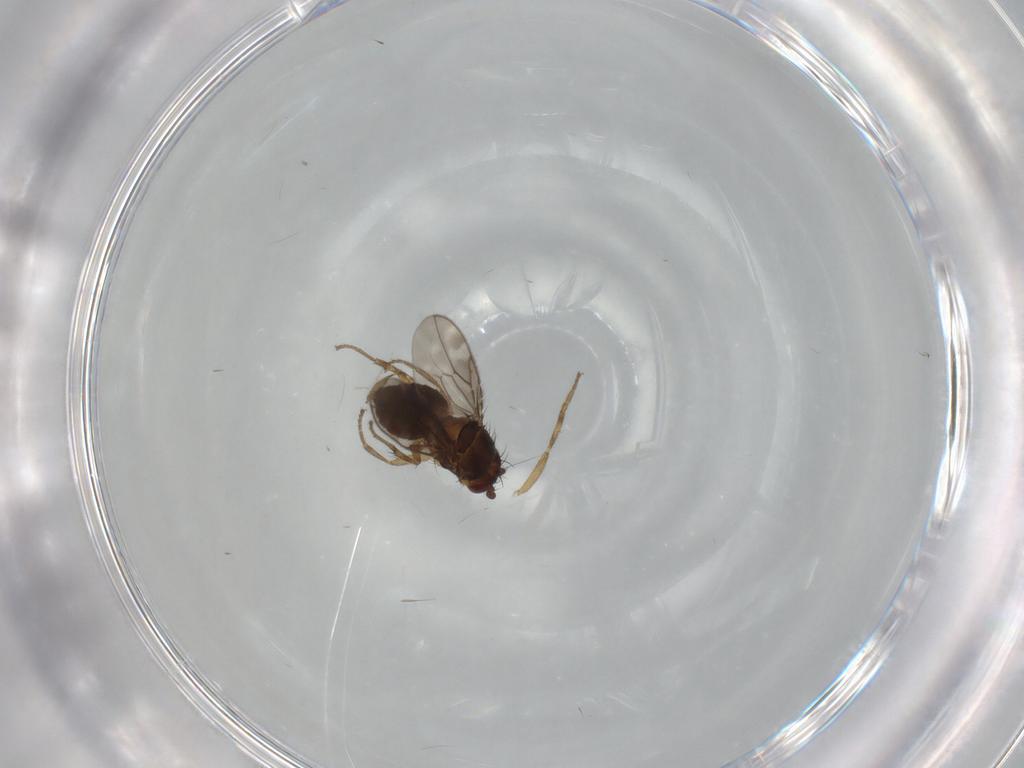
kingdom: Animalia
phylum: Arthropoda
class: Insecta
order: Diptera
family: Sphaeroceridae
